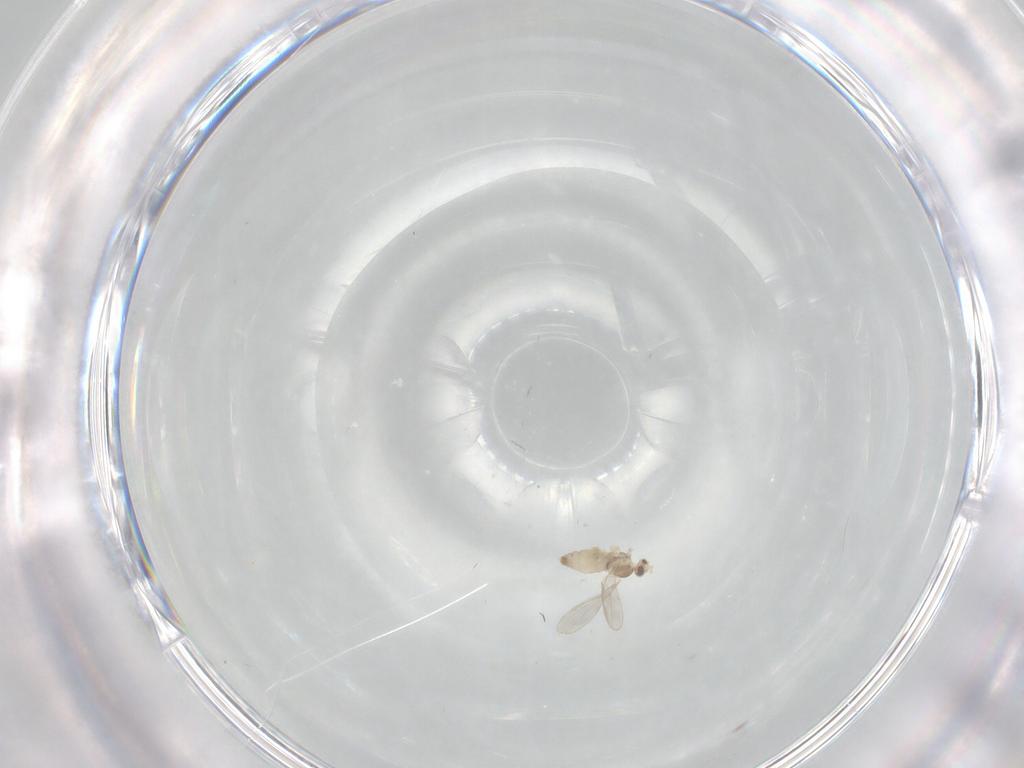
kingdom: Animalia
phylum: Arthropoda
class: Insecta
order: Diptera
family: Cecidomyiidae
